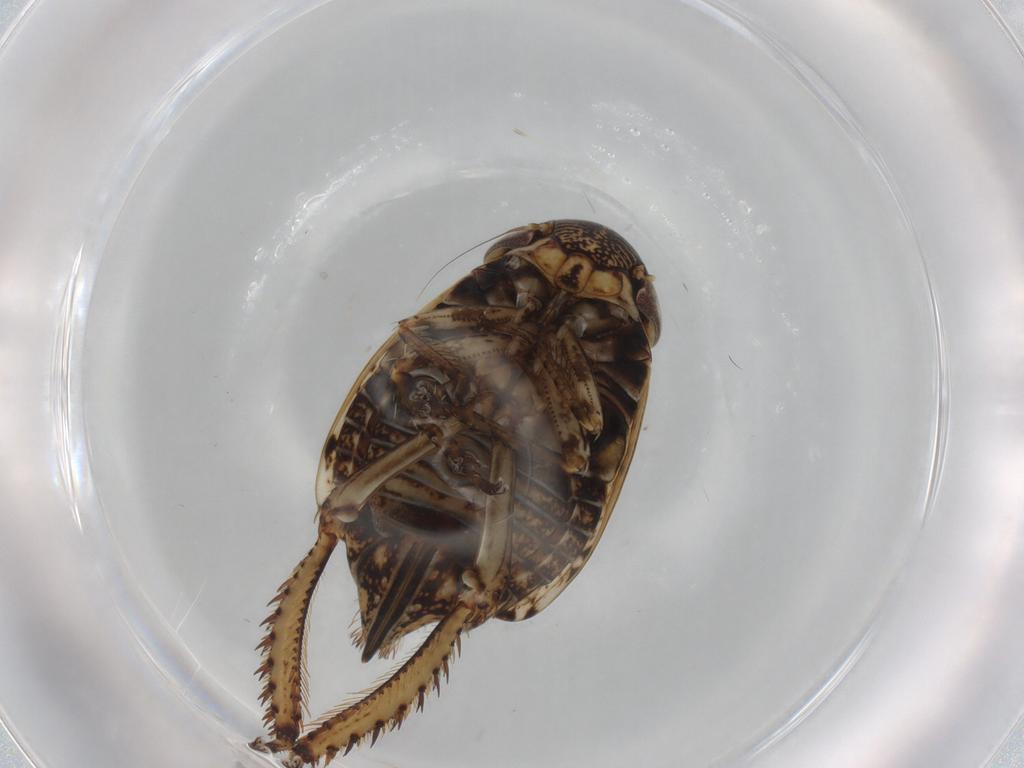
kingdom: Animalia
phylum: Arthropoda
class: Insecta
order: Hemiptera
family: Cicadellidae
